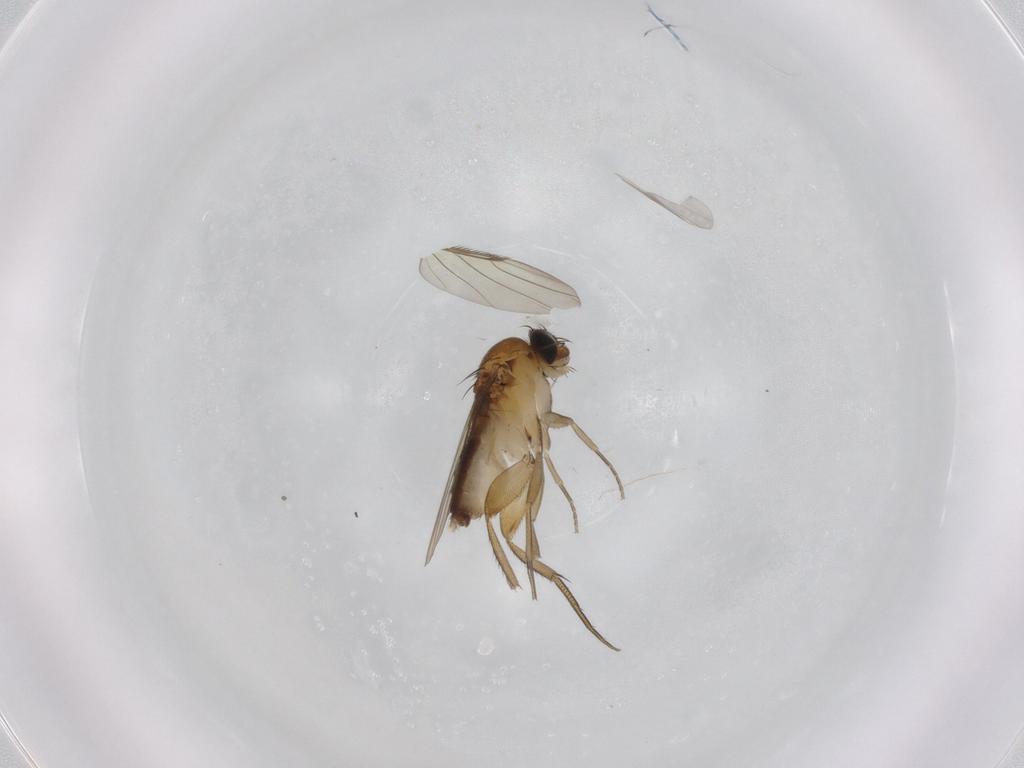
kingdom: Animalia
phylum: Arthropoda
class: Insecta
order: Diptera
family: Phoridae
